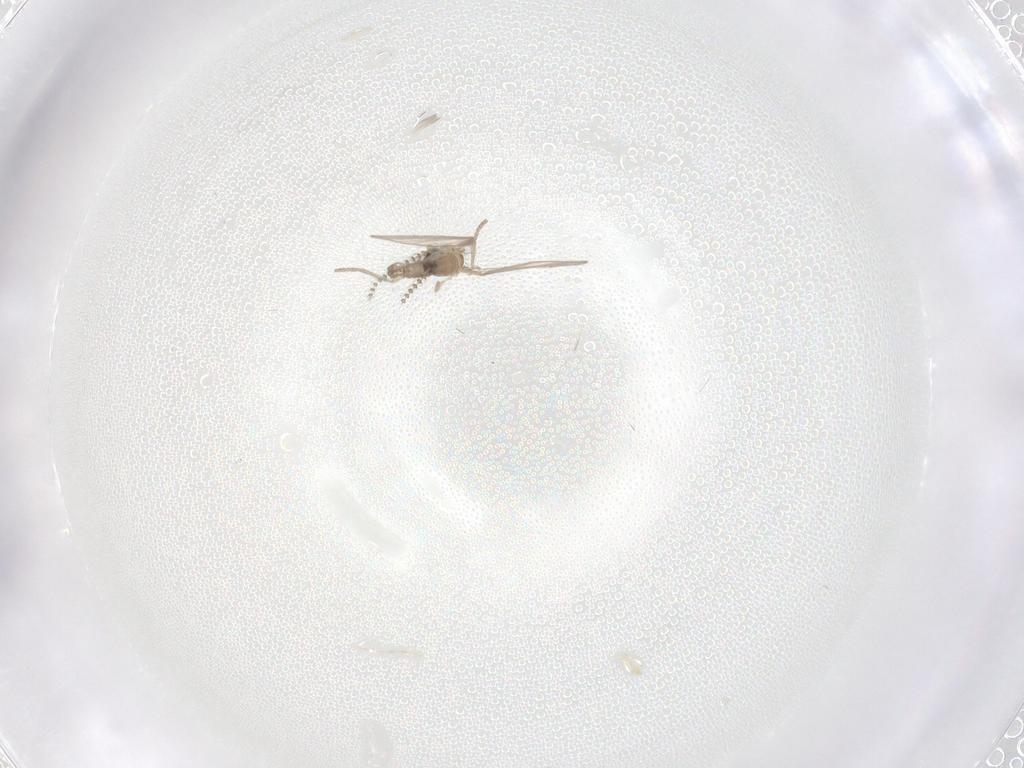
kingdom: Animalia
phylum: Arthropoda
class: Insecta
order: Diptera
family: Psychodidae
